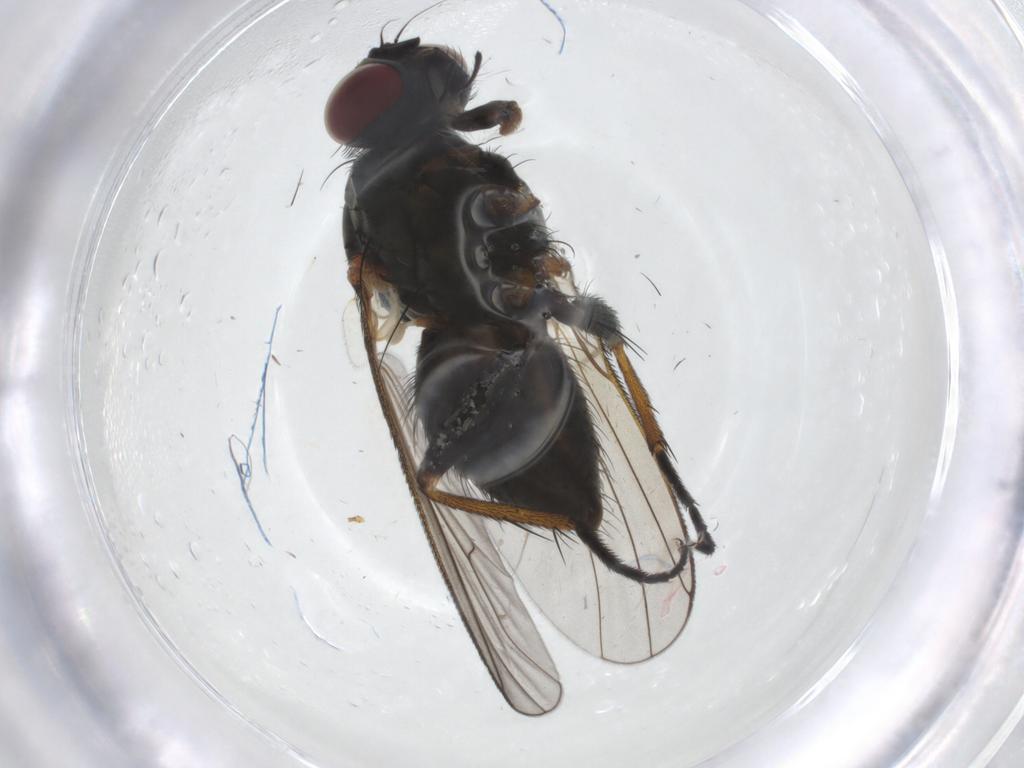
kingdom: Animalia
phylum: Arthropoda
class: Insecta
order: Diptera
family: Muscidae
